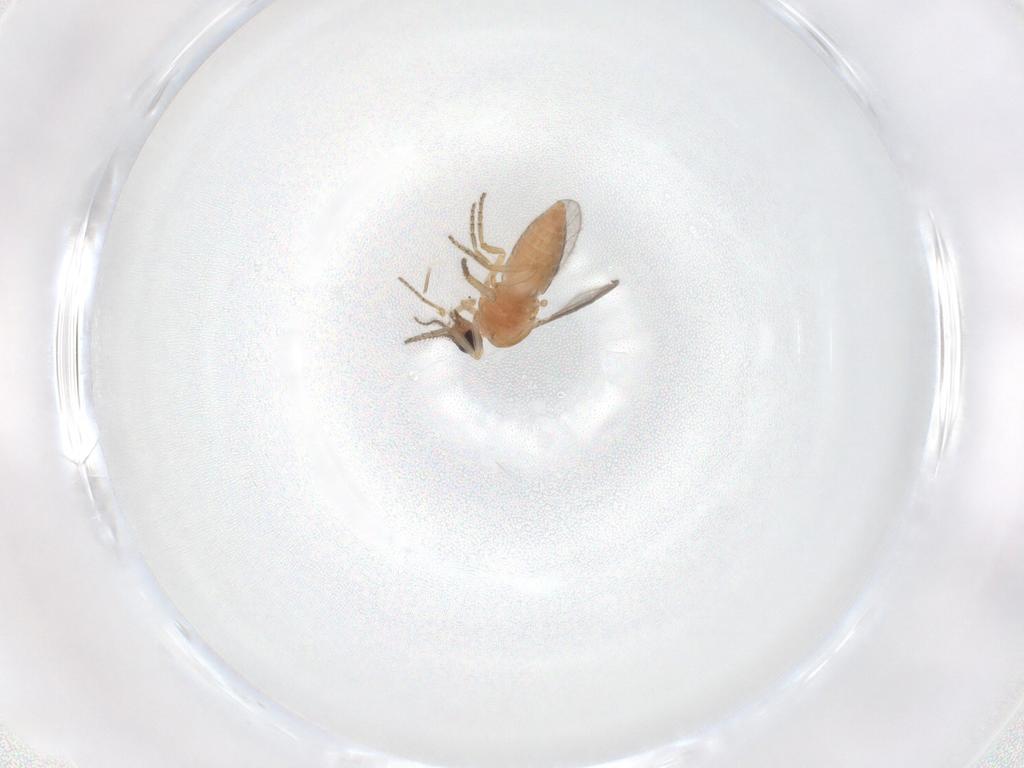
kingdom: Animalia
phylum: Arthropoda
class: Insecta
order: Diptera
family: Ceratopogonidae
